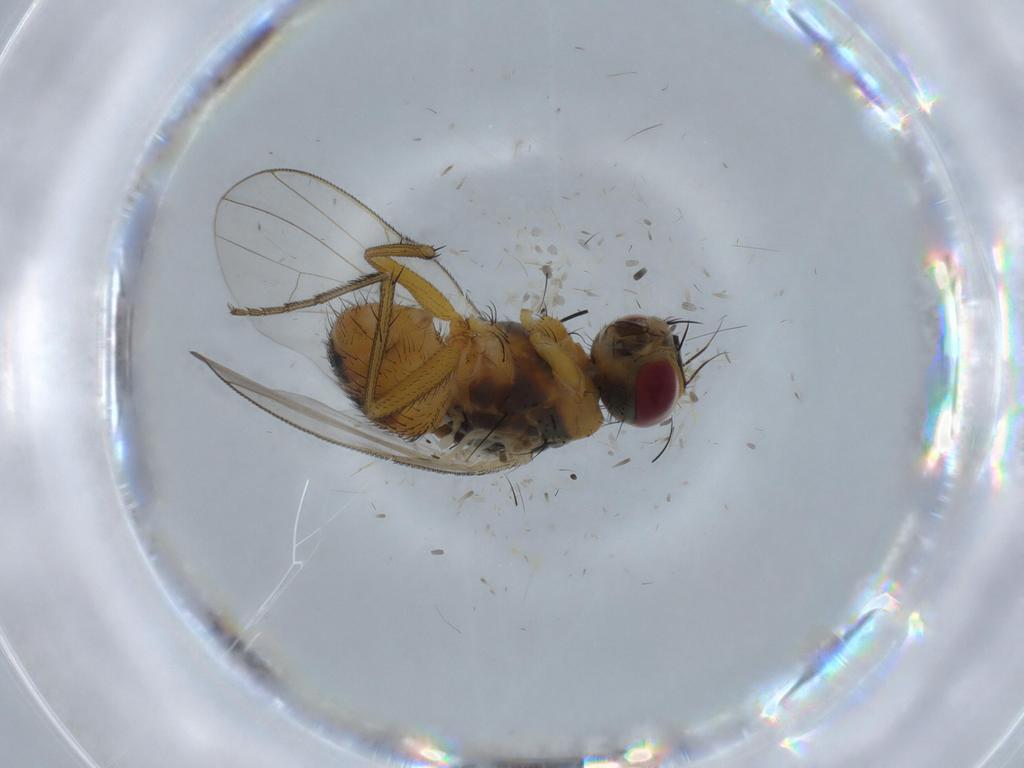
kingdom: Animalia
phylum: Arthropoda
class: Insecta
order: Diptera
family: Muscidae
